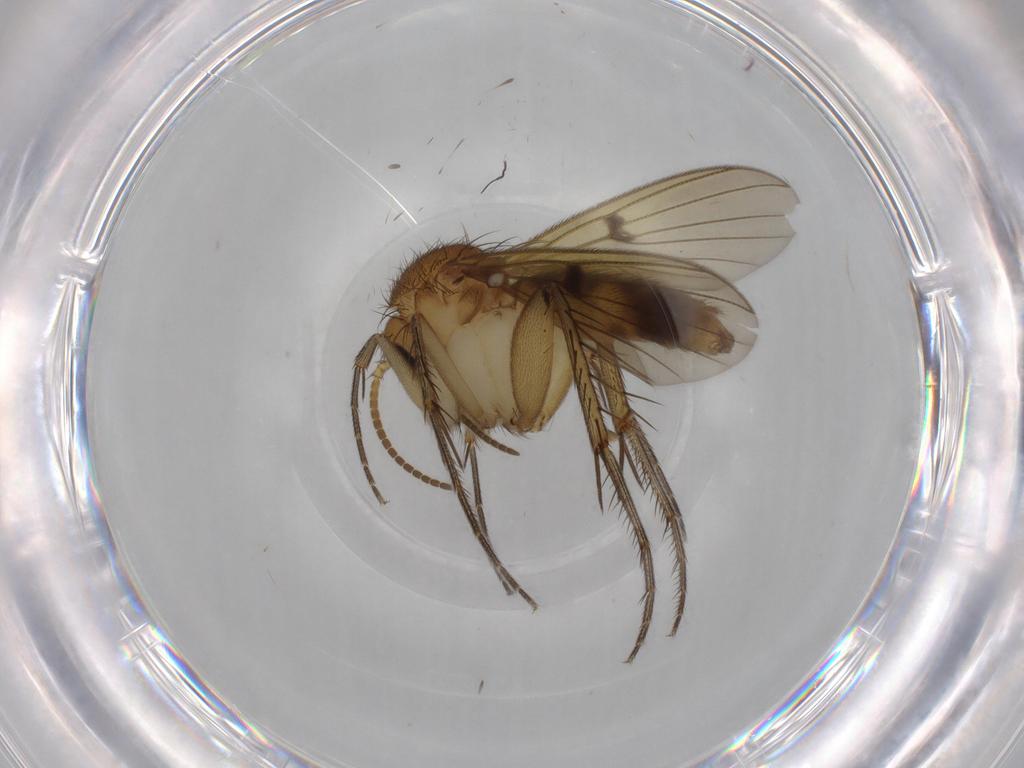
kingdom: Animalia
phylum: Arthropoda
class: Insecta
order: Diptera
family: Mycetophilidae
